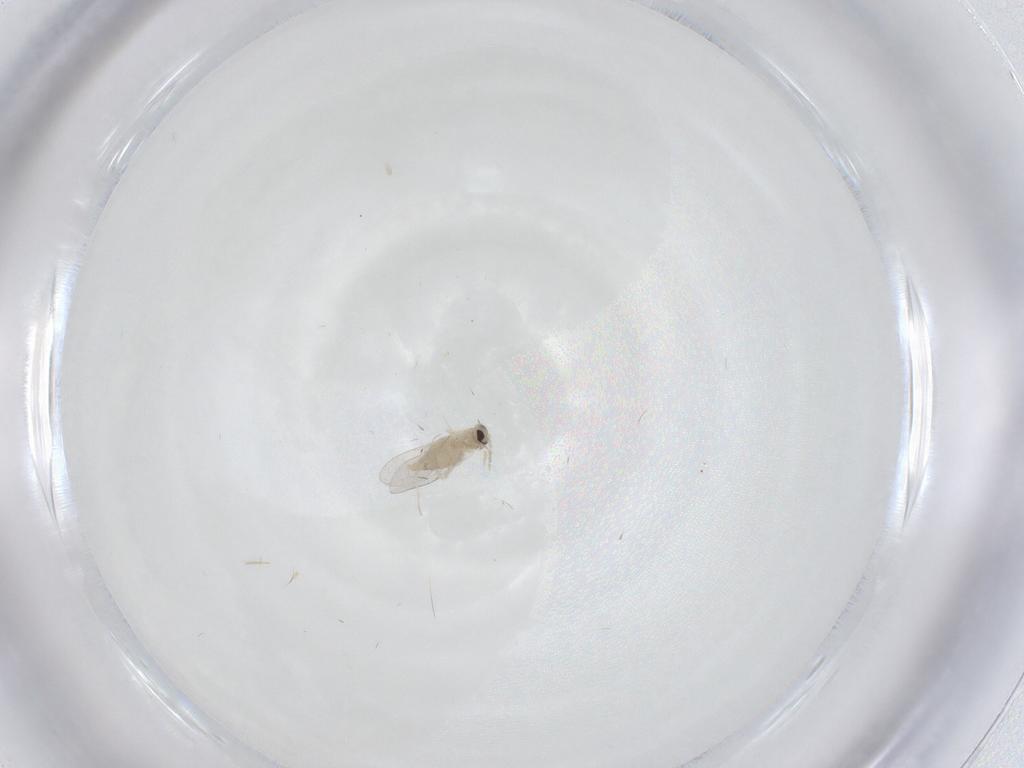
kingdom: Animalia
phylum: Arthropoda
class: Insecta
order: Diptera
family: Cecidomyiidae
